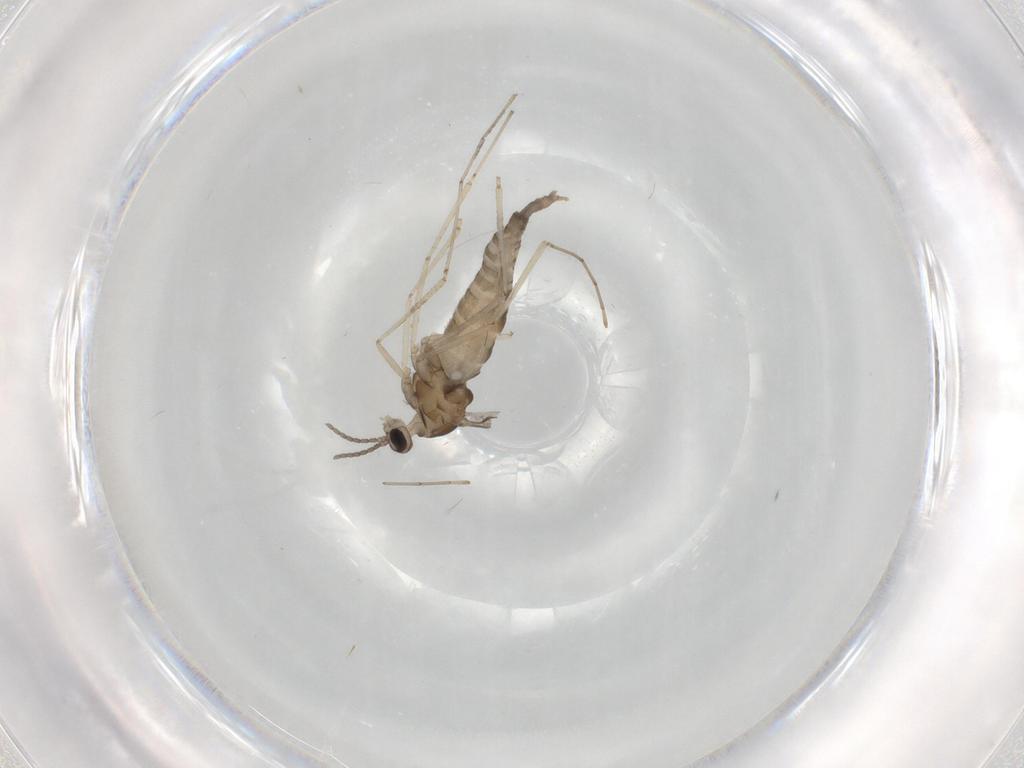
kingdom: Animalia
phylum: Arthropoda
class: Insecta
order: Diptera
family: Cecidomyiidae
